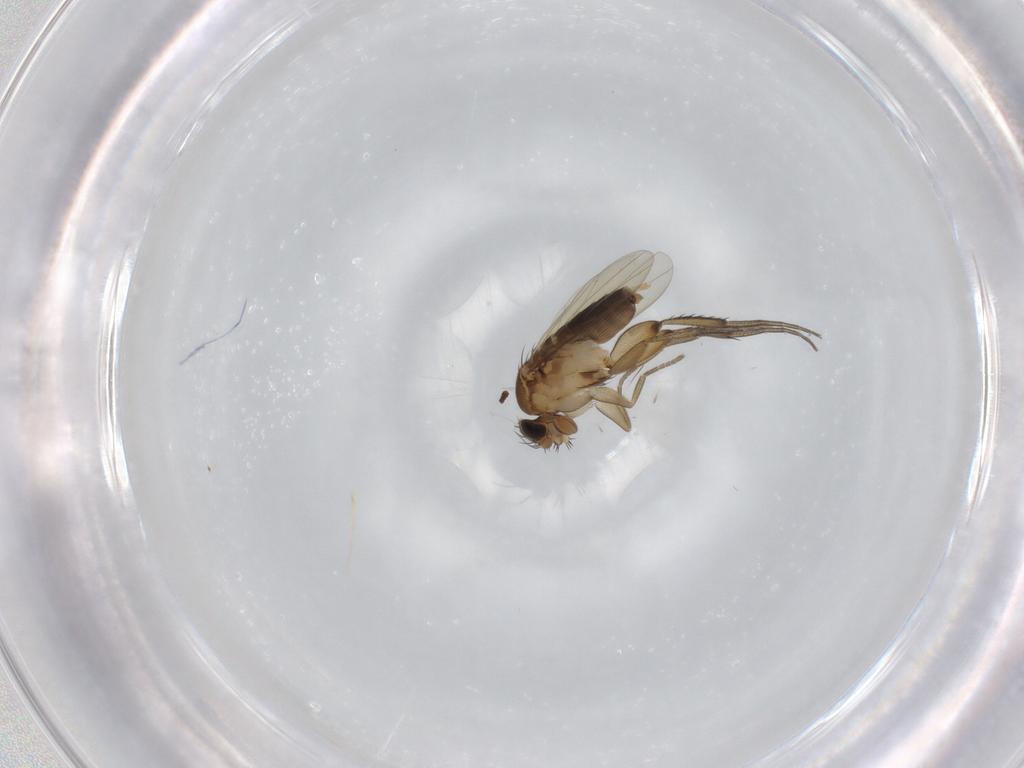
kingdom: Animalia
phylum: Arthropoda
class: Insecta
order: Diptera
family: Phoridae
